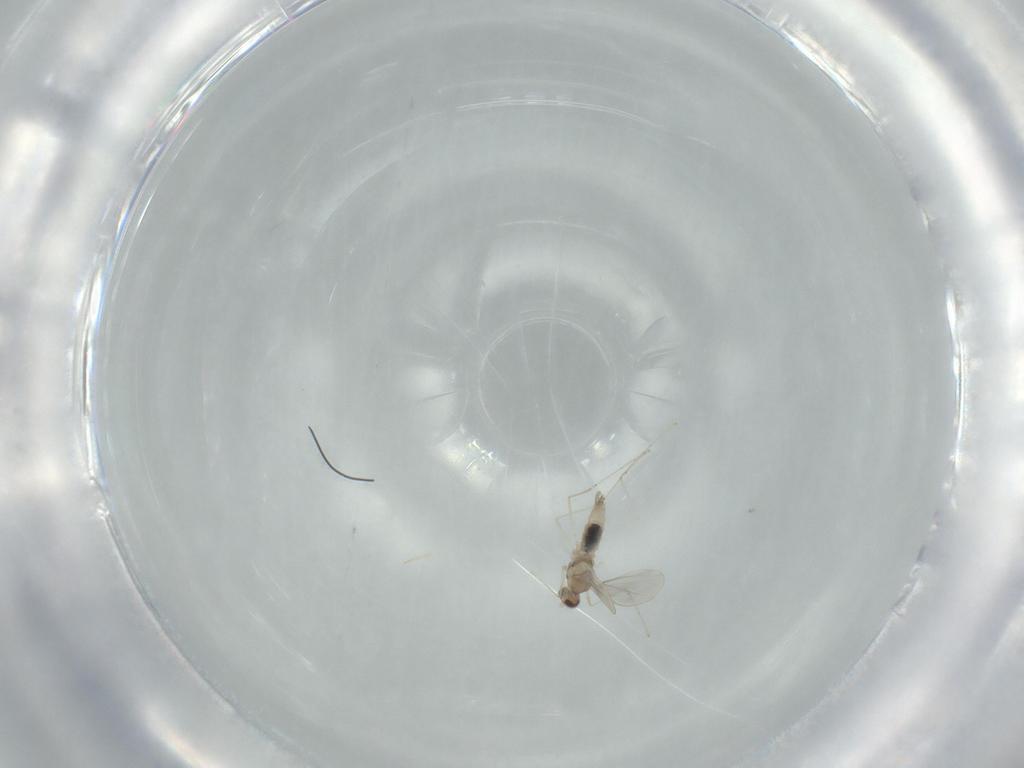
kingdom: Animalia
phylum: Arthropoda
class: Insecta
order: Diptera
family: Cecidomyiidae
